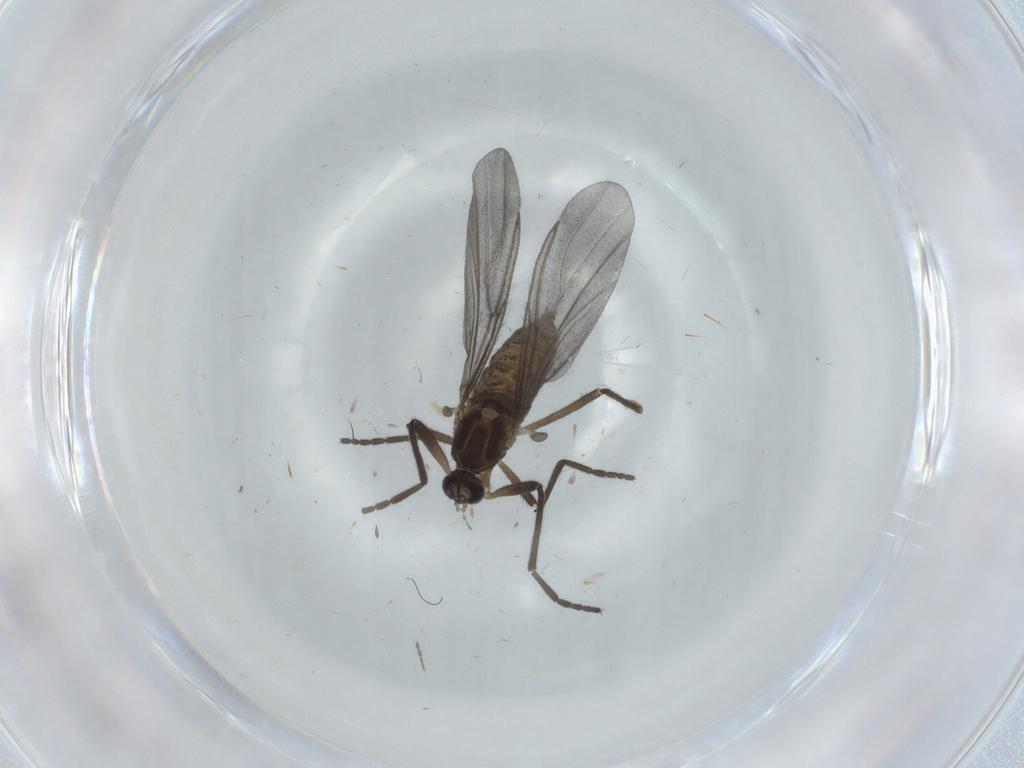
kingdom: Animalia
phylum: Arthropoda
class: Insecta
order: Diptera
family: Cecidomyiidae
